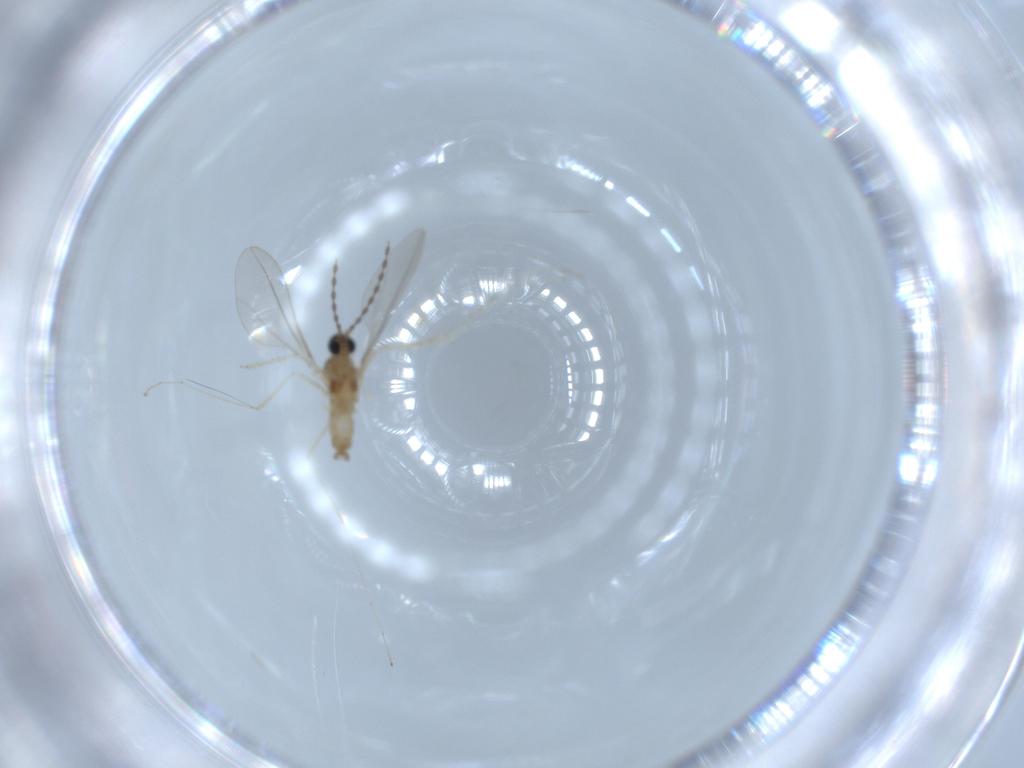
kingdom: Animalia
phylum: Arthropoda
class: Insecta
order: Diptera
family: Cecidomyiidae
